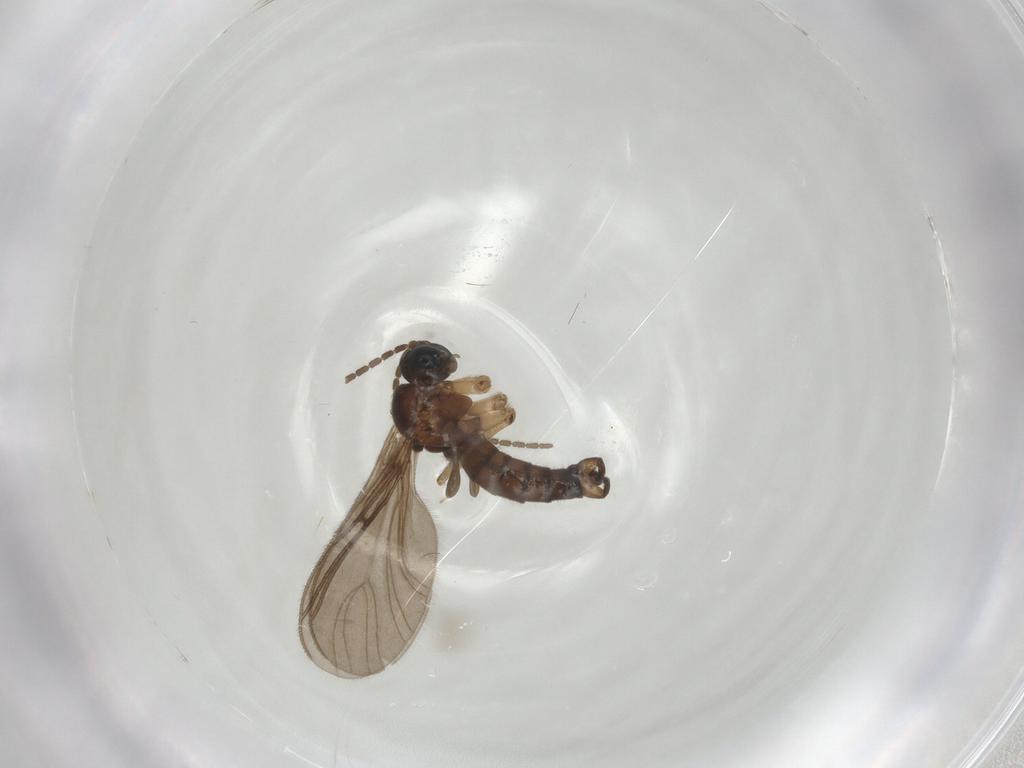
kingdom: Animalia
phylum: Arthropoda
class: Insecta
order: Diptera
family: Sciaridae
